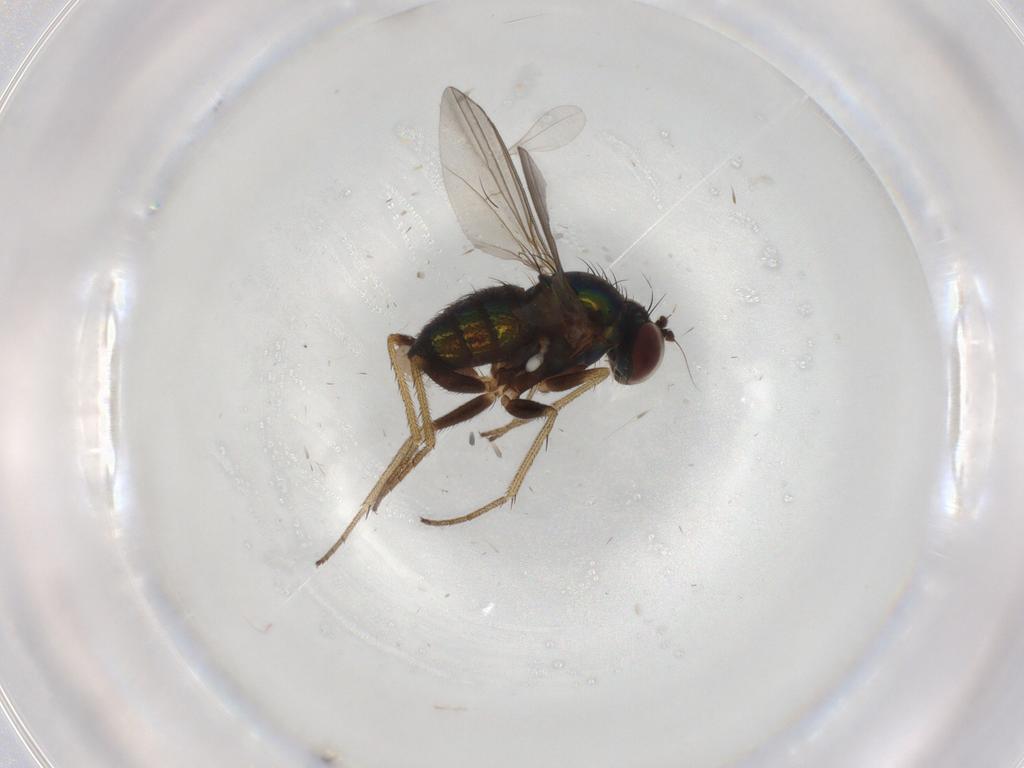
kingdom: Animalia
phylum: Arthropoda
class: Insecta
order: Diptera
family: Ceratopogonidae
